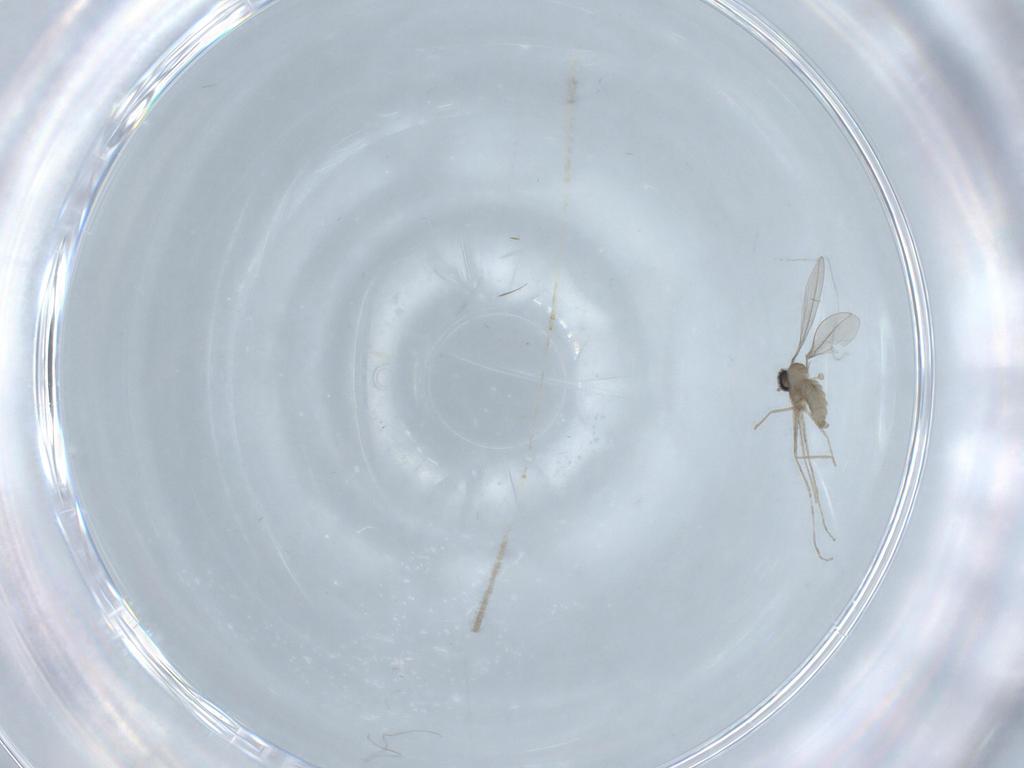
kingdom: Animalia
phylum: Arthropoda
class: Insecta
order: Diptera
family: Cecidomyiidae
